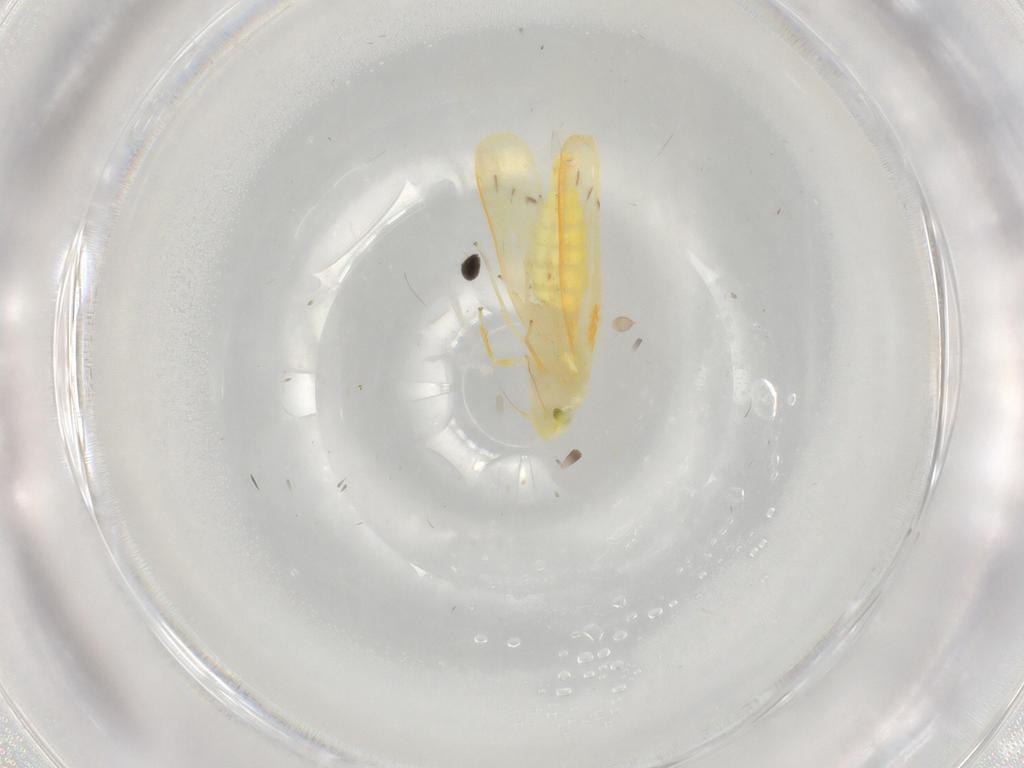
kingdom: Animalia
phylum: Arthropoda
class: Insecta
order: Hemiptera
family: Cicadellidae
